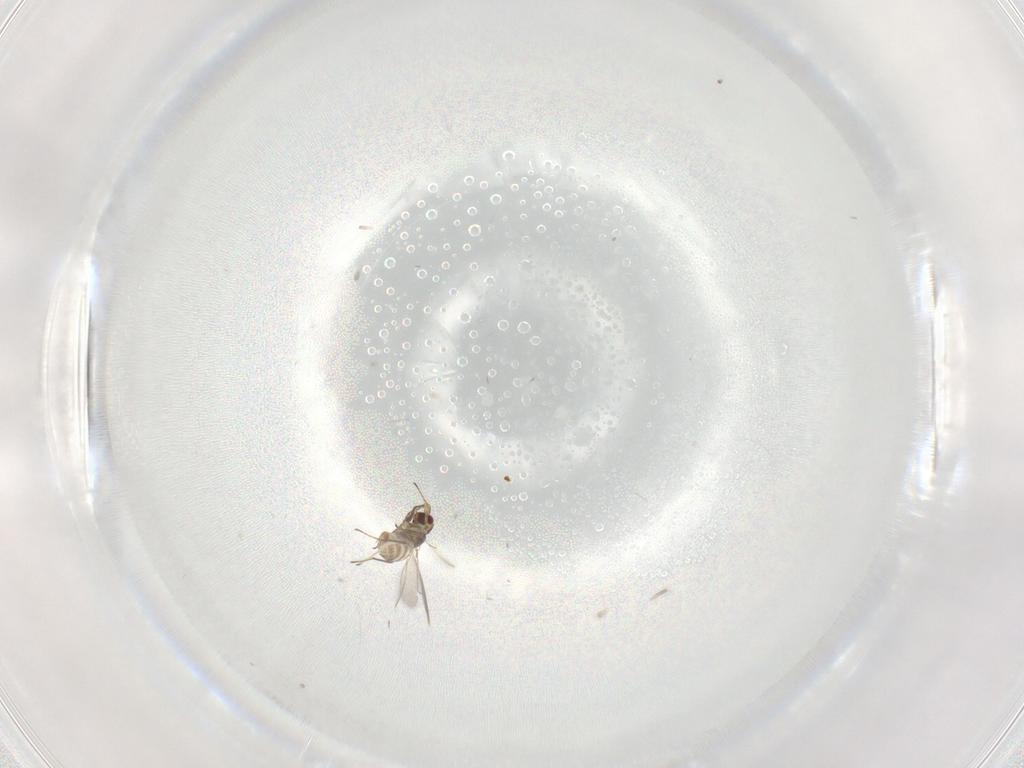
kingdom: Animalia
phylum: Arthropoda
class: Insecta
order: Hymenoptera
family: Mymaridae
